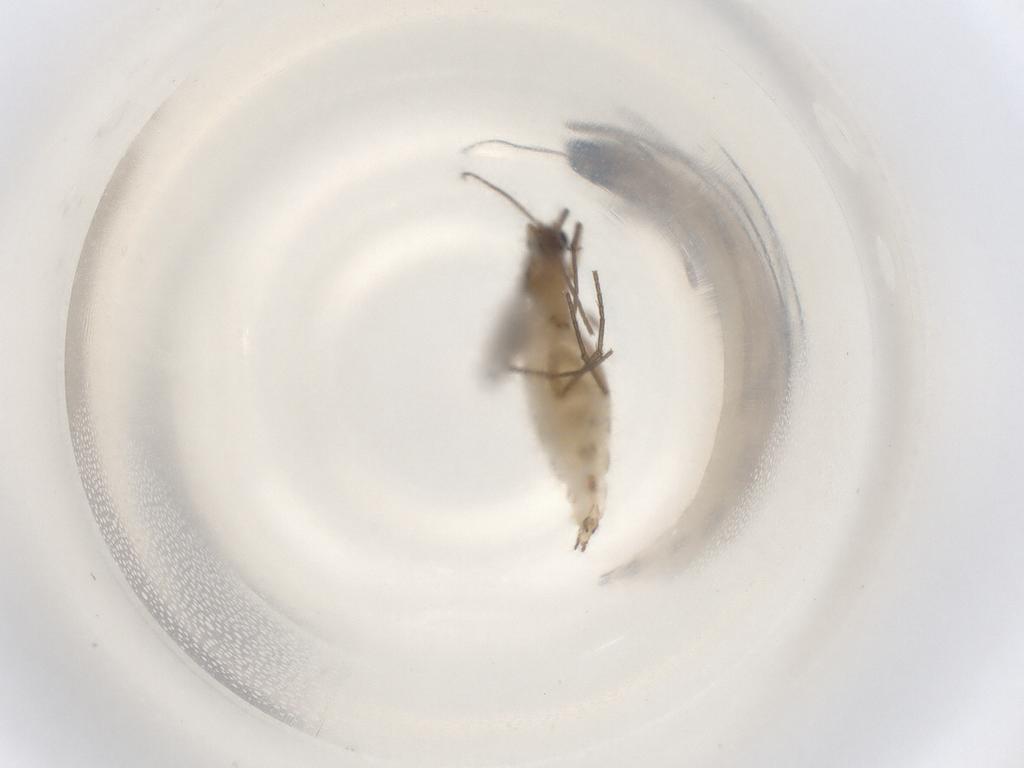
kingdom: Animalia
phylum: Arthropoda
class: Insecta
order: Diptera
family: Sciaridae
